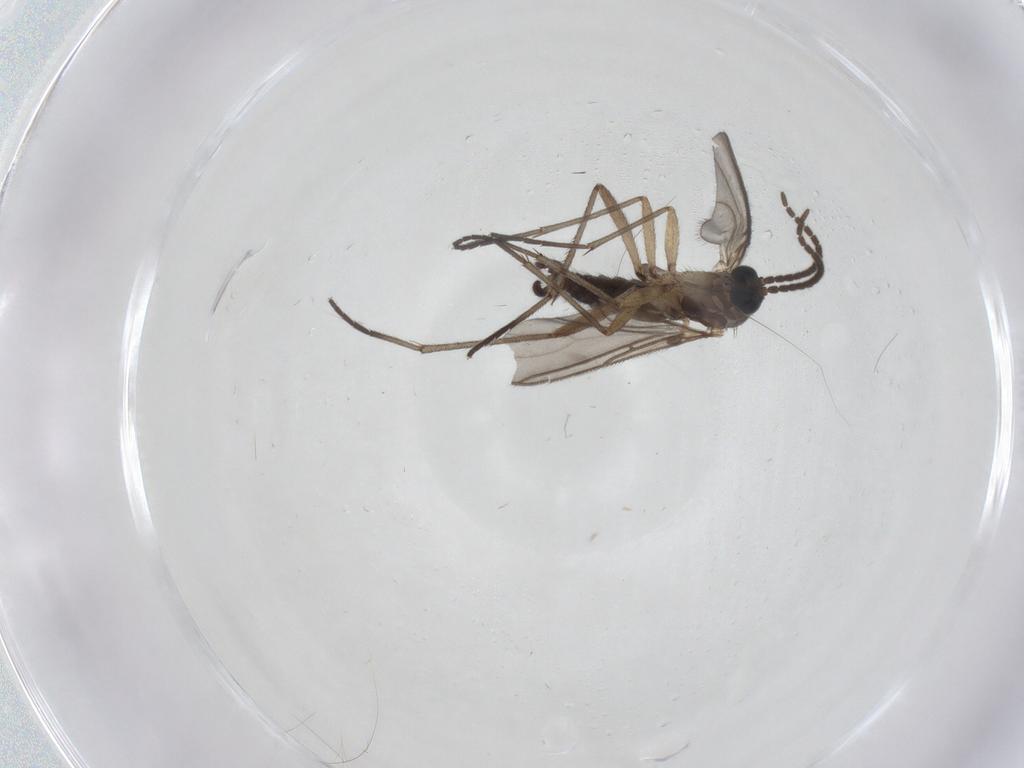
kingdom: Animalia
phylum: Arthropoda
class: Insecta
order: Diptera
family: Sciaridae
